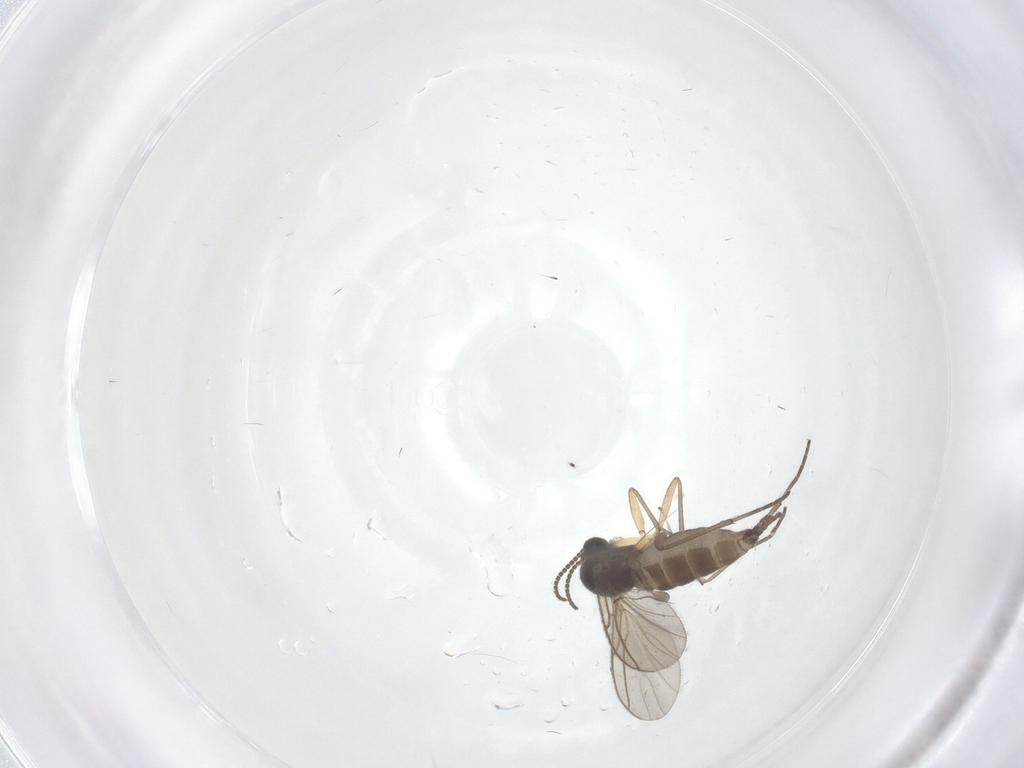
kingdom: Animalia
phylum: Arthropoda
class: Insecta
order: Diptera
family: Sciaridae
